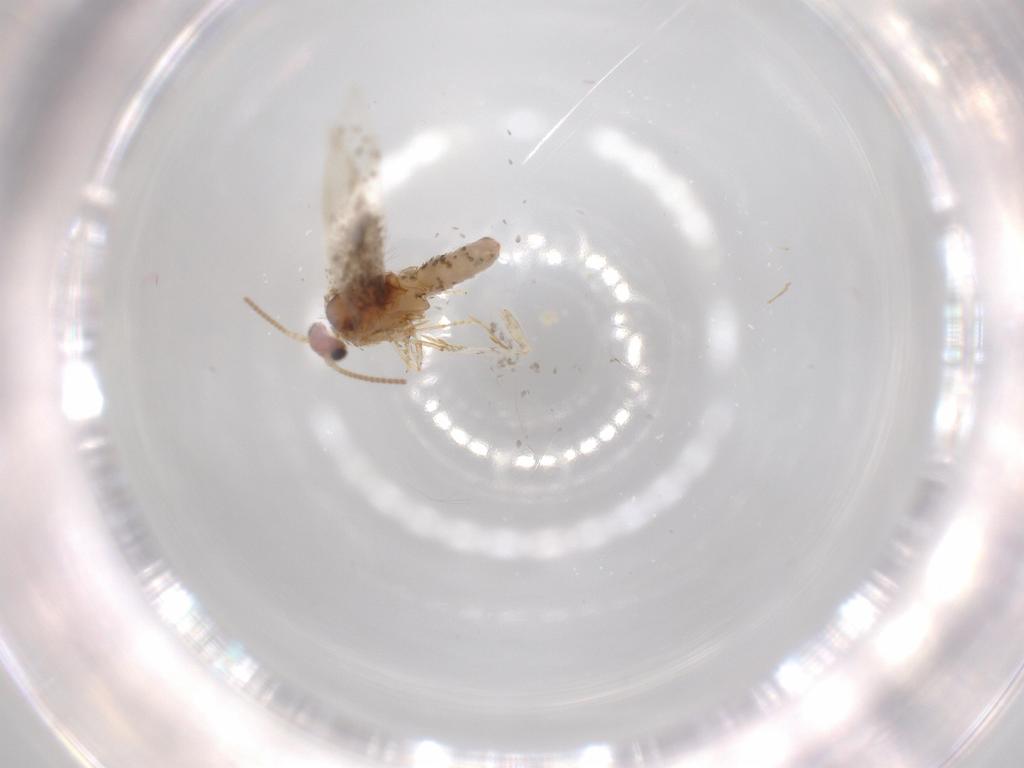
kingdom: Animalia
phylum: Arthropoda
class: Insecta
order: Lepidoptera
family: Tineidae
